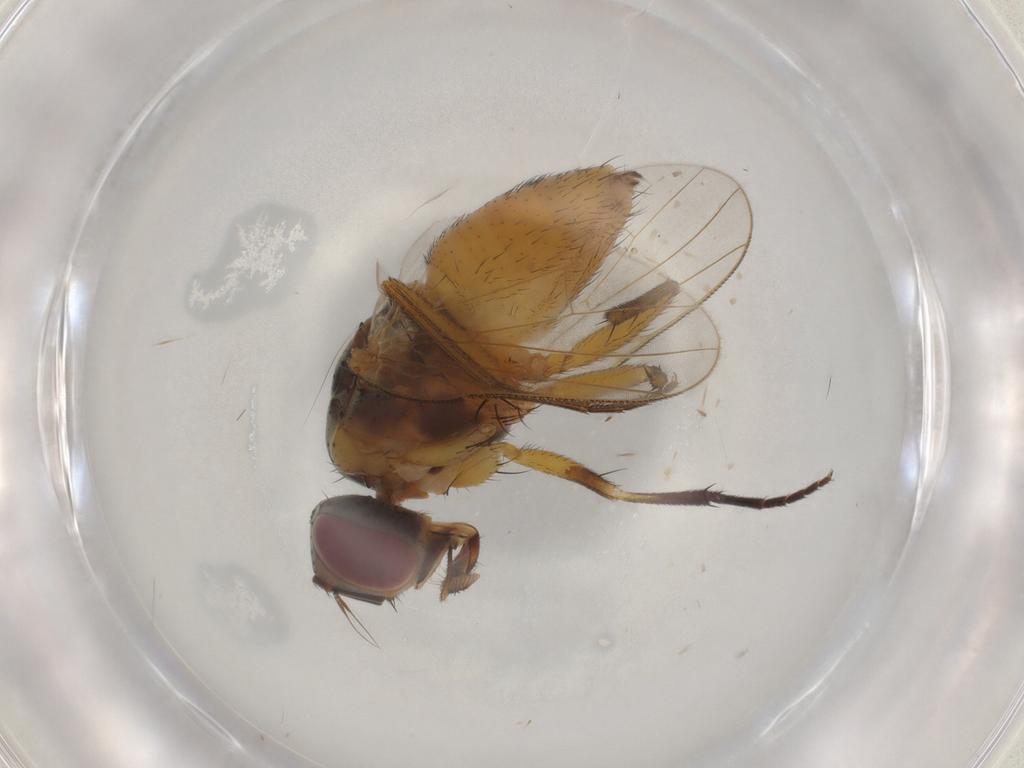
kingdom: Animalia
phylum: Arthropoda
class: Insecta
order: Diptera
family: Muscidae
